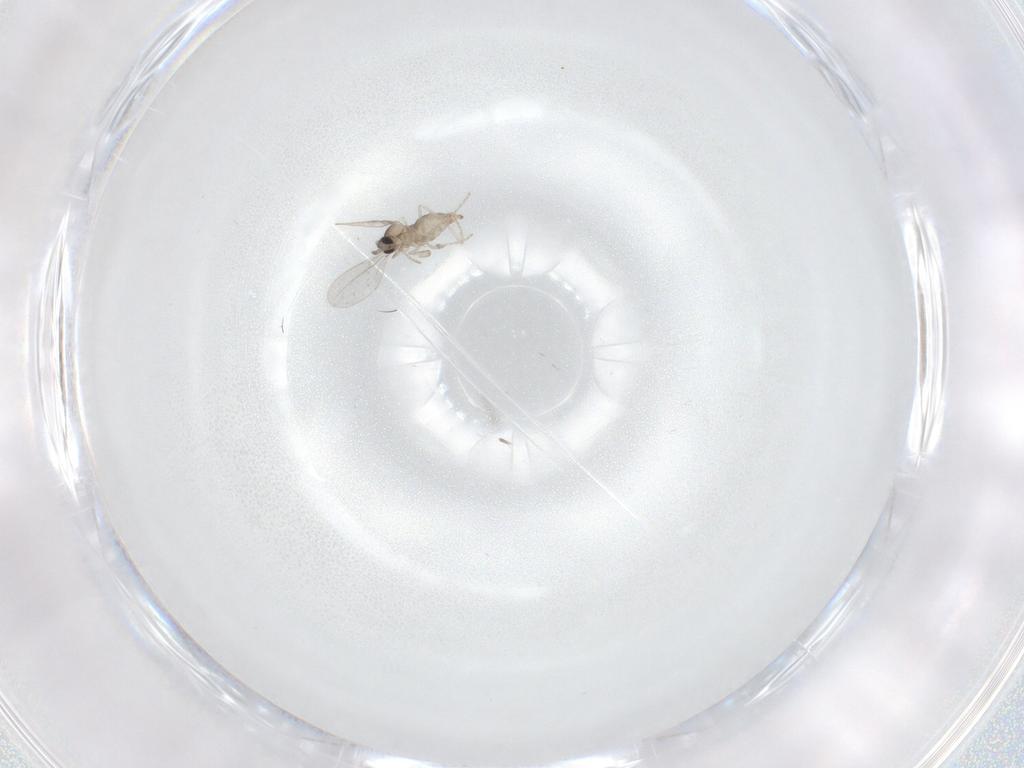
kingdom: Animalia
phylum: Arthropoda
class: Insecta
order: Diptera
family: Cecidomyiidae
